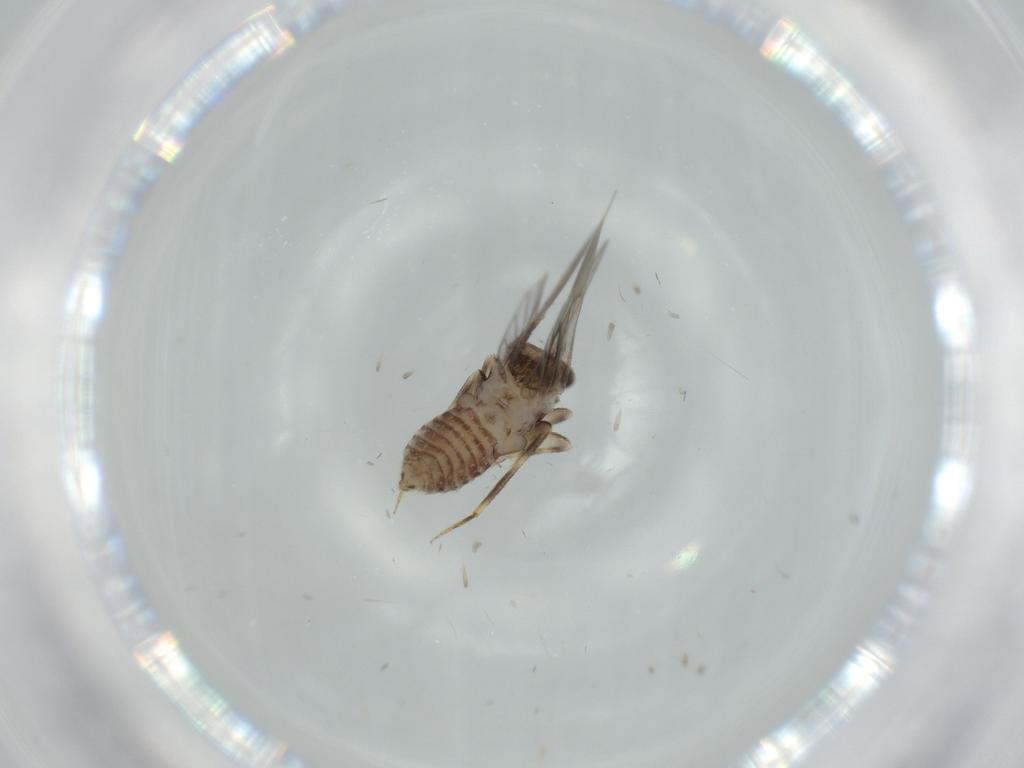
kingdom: Animalia
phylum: Arthropoda
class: Insecta
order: Psocodea
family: Lepidopsocidae
